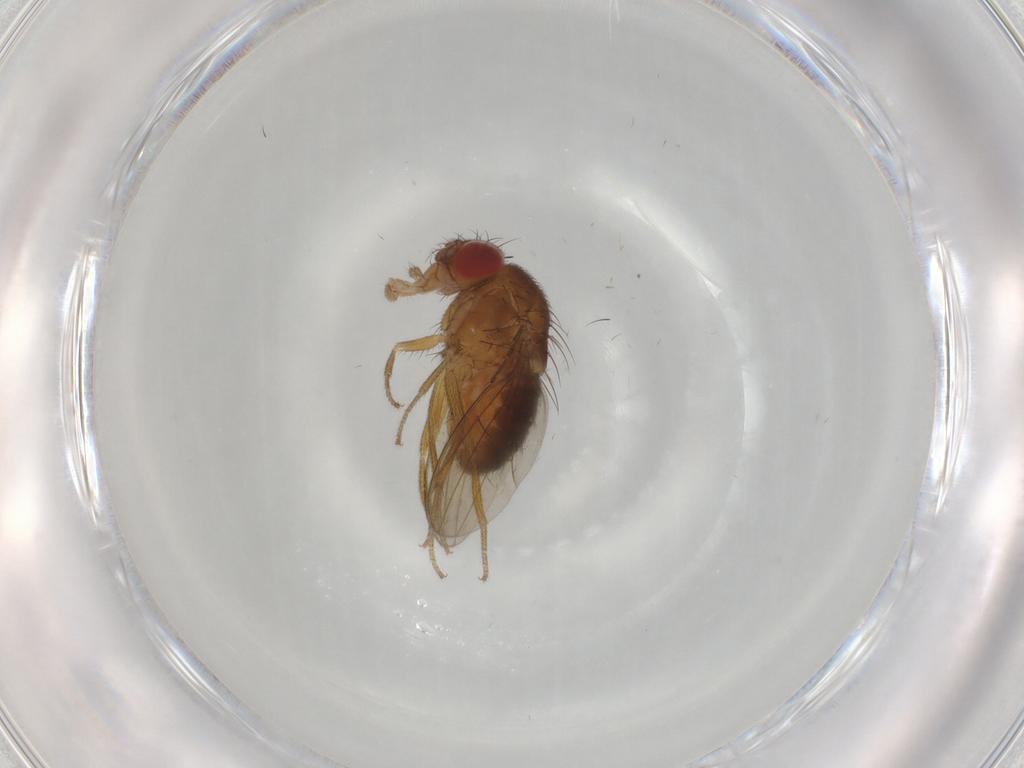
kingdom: Animalia
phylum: Arthropoda
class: Insecta
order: Diptera
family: Drosophilidae
